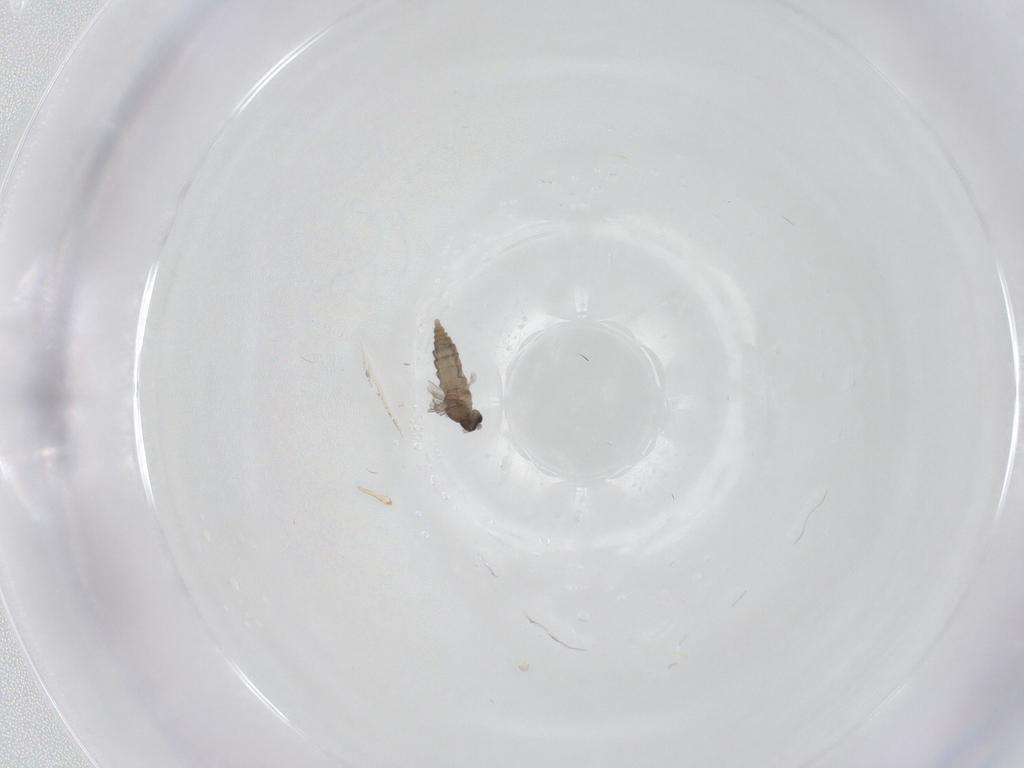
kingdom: Animalia
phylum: Arthropoda
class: Insecta
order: Diptera
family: Cecidomyiidae
